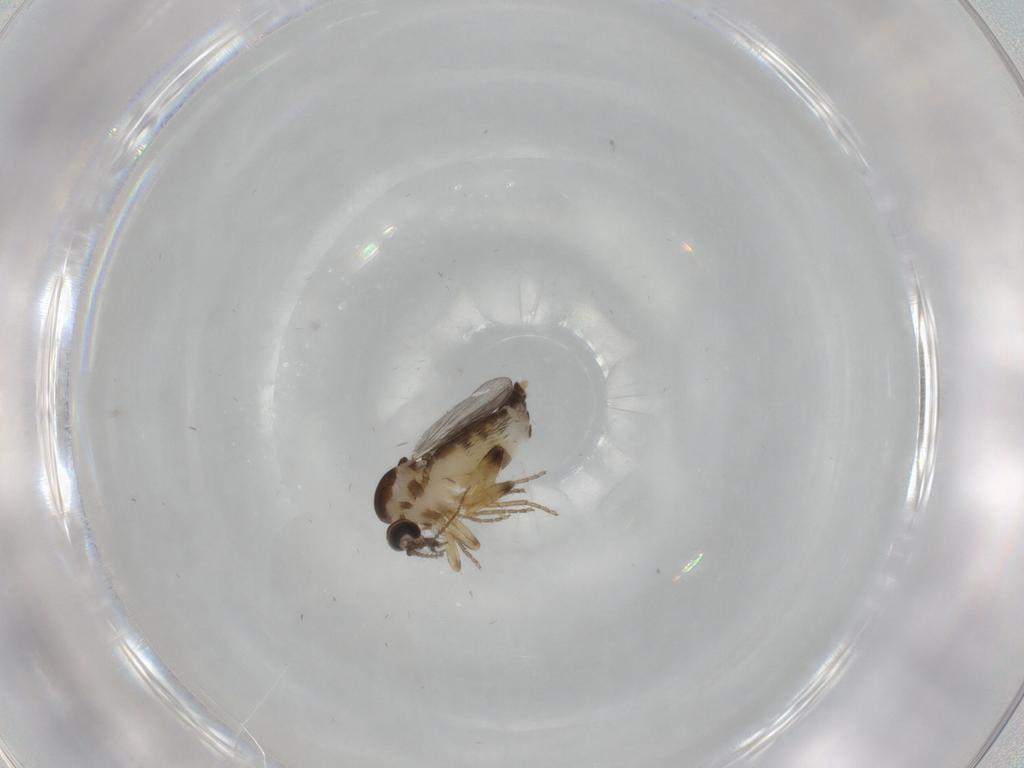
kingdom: Animalia
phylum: Arthropoda
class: Insecta
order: Diptera
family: Ceratopogonidae
